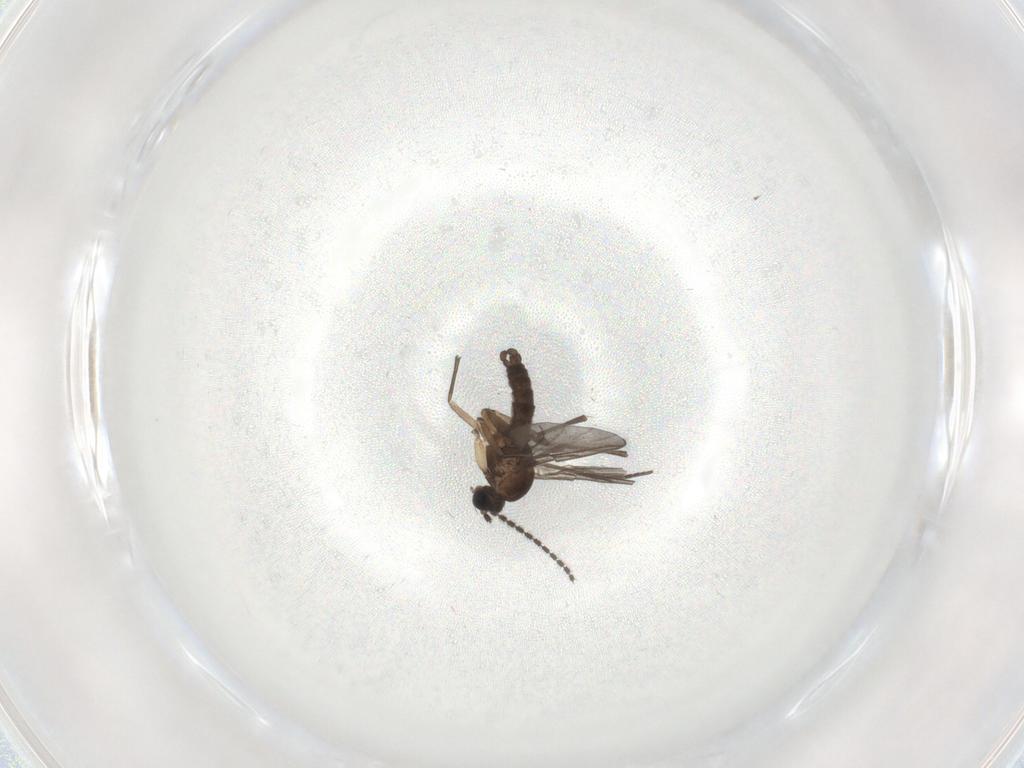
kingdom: Animalia
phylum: Arthropoda
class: Insecta
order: Diptera
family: Sciaridae
